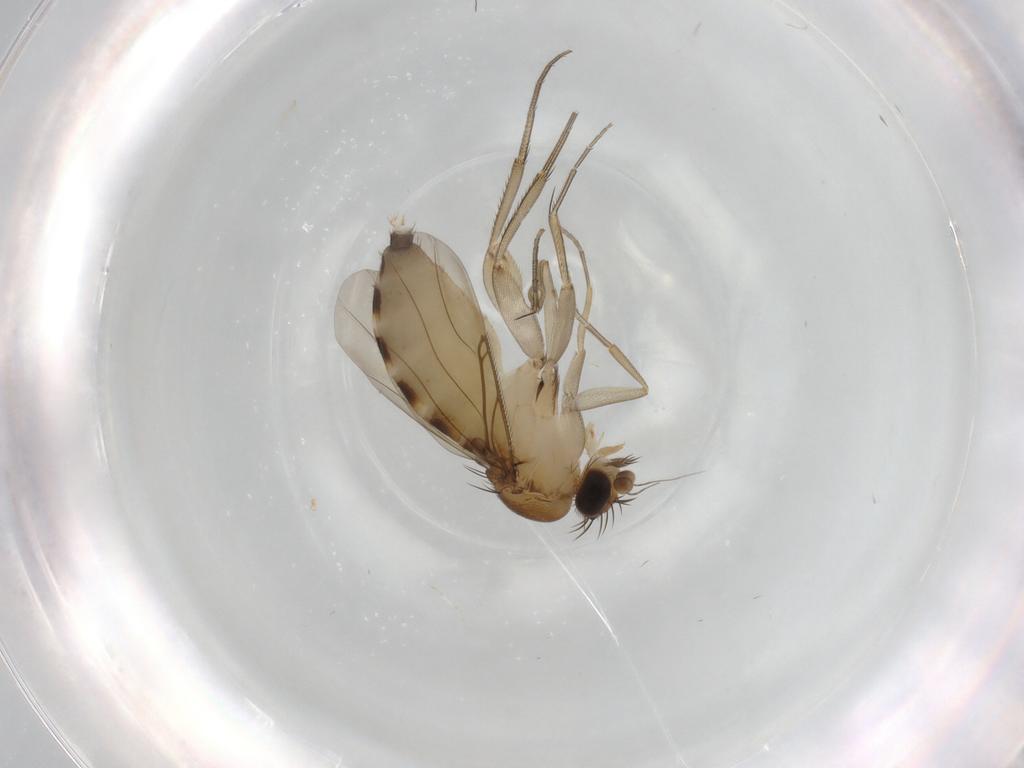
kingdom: Animalia
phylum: Arthropoda
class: Insecta
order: Diptera
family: Phoridae
